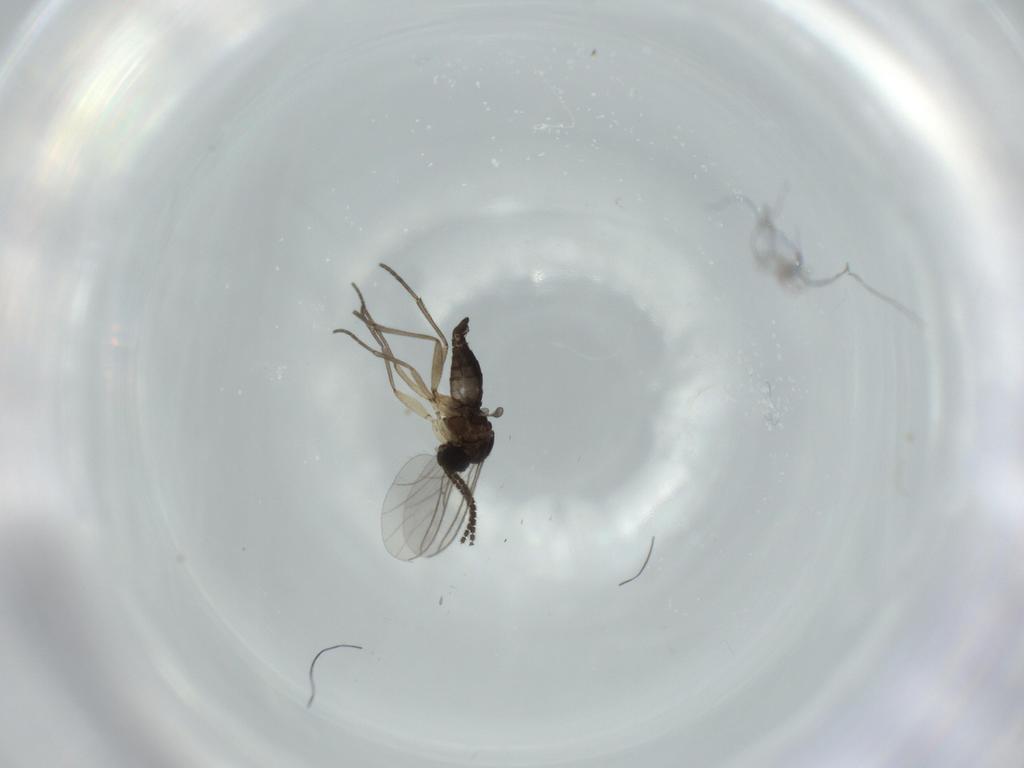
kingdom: Animalia
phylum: Arthropoda
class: Insecta
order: Diptera
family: Sciaridae
